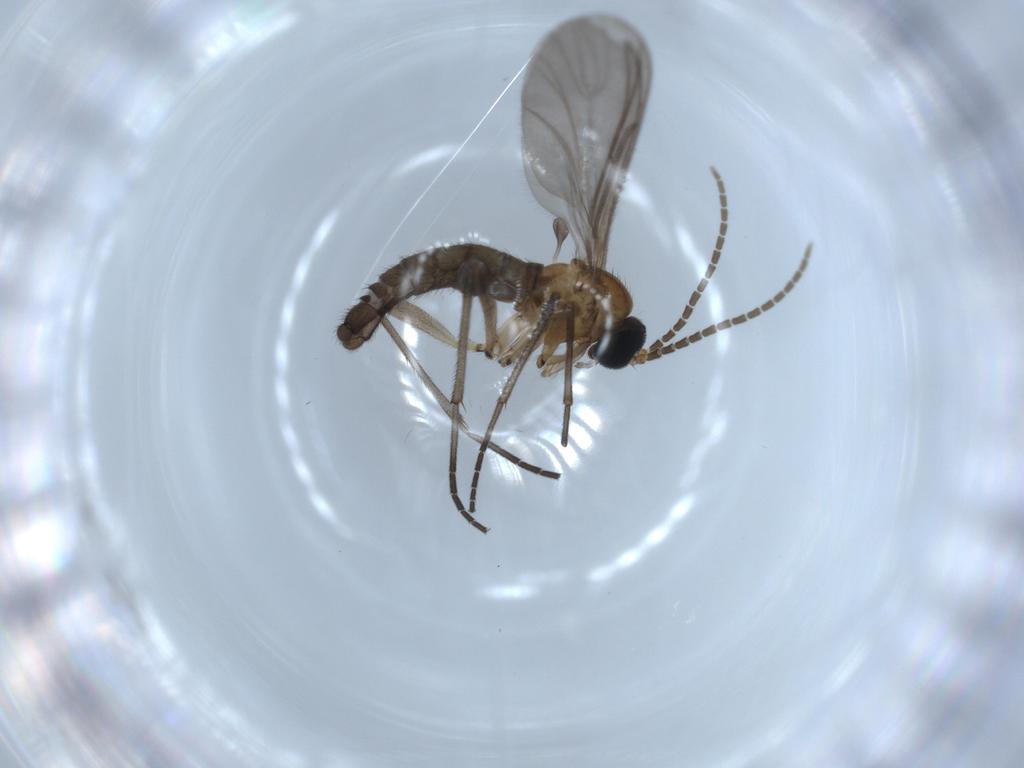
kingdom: Animalia
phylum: Arthropoda
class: Insecta
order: Diptera
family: Sciaridae
